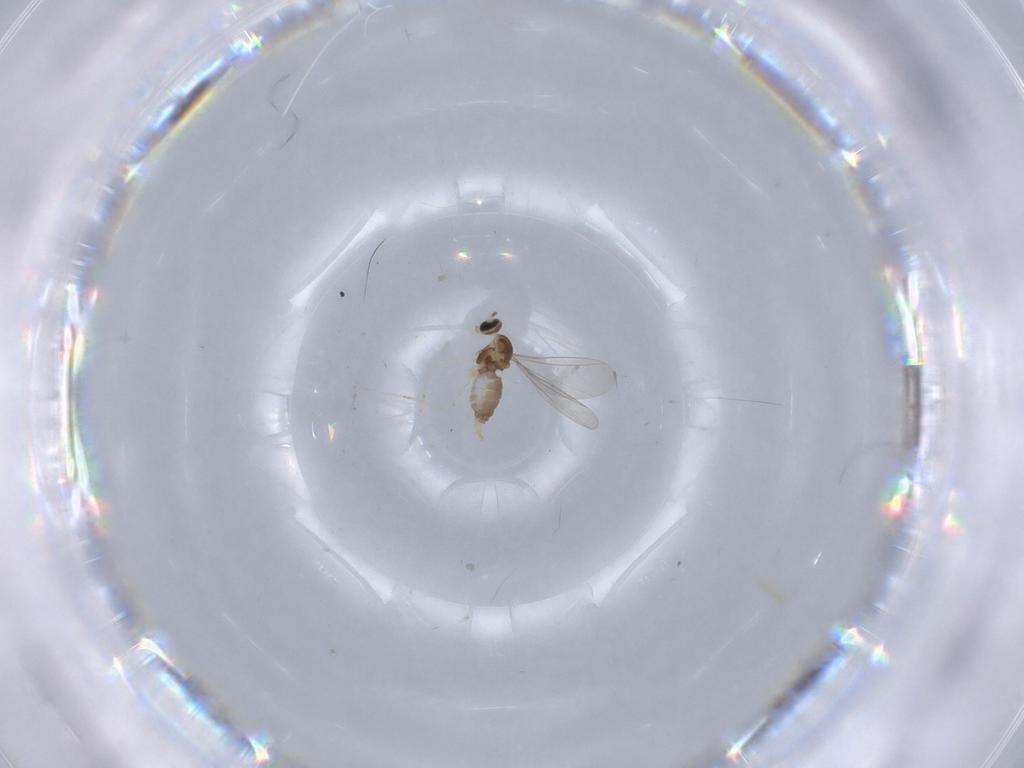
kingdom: Animalia
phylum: Arthropoda
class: Insecta
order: Diptera
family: Cecidomyiidae
